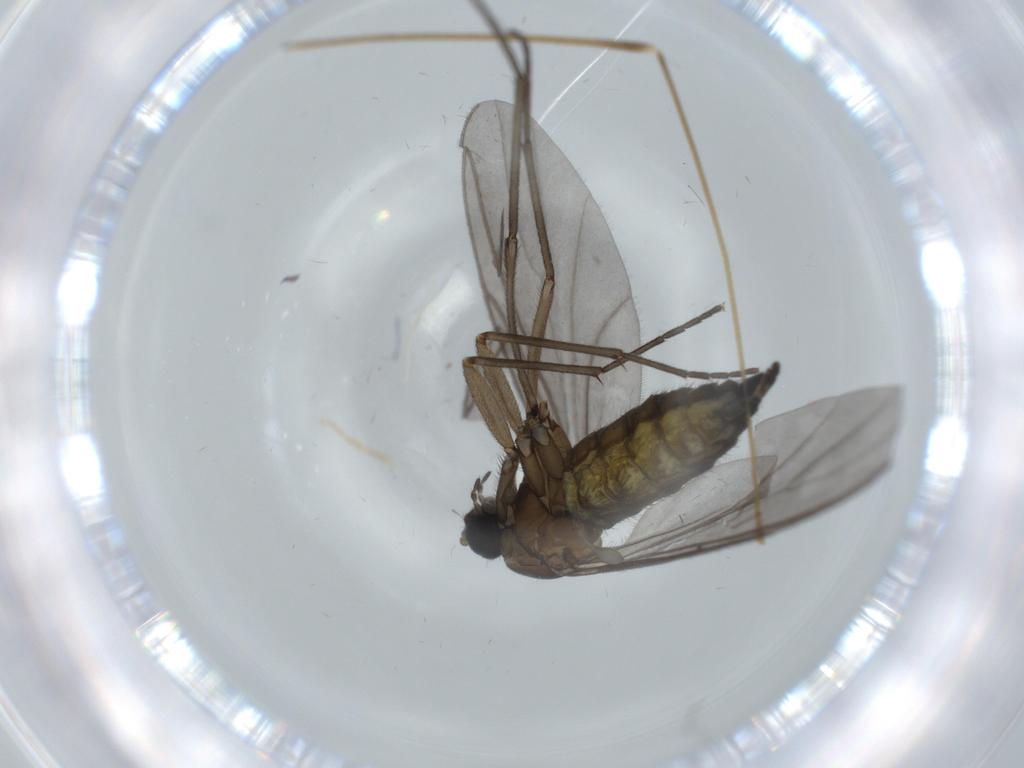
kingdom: Animalia
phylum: Arthropoda
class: Insecta
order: Diptera
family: Sciaridae
